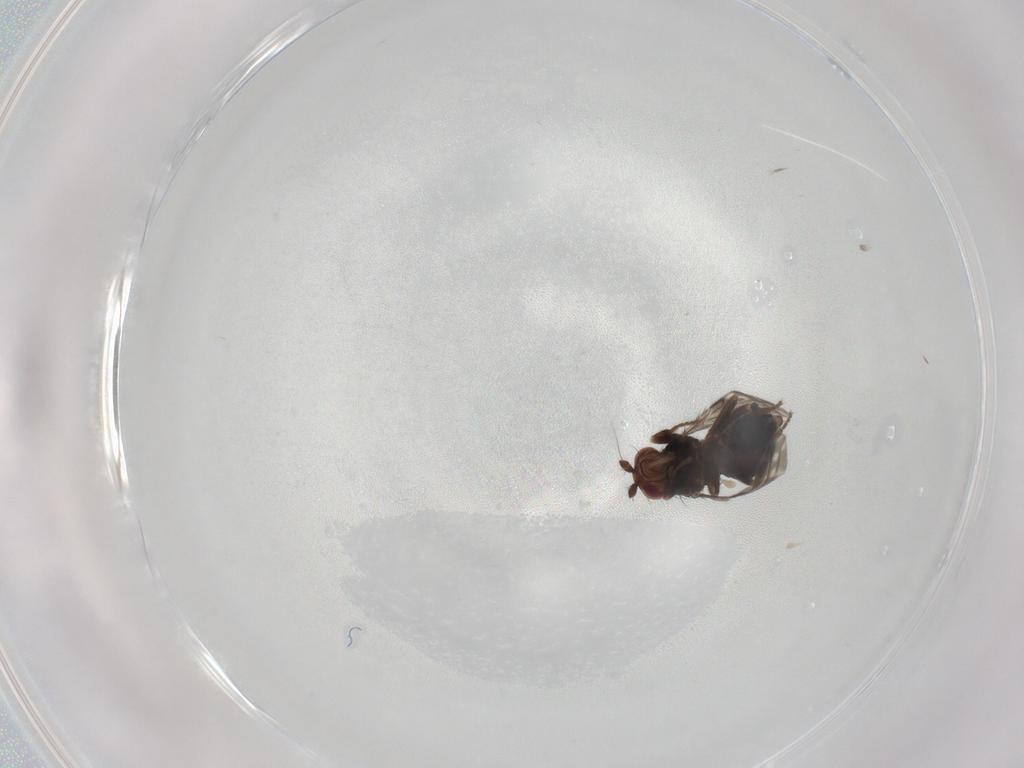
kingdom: Animalia
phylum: Arthropoda
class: Insecta
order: Diptera
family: Sphaeroceridae
